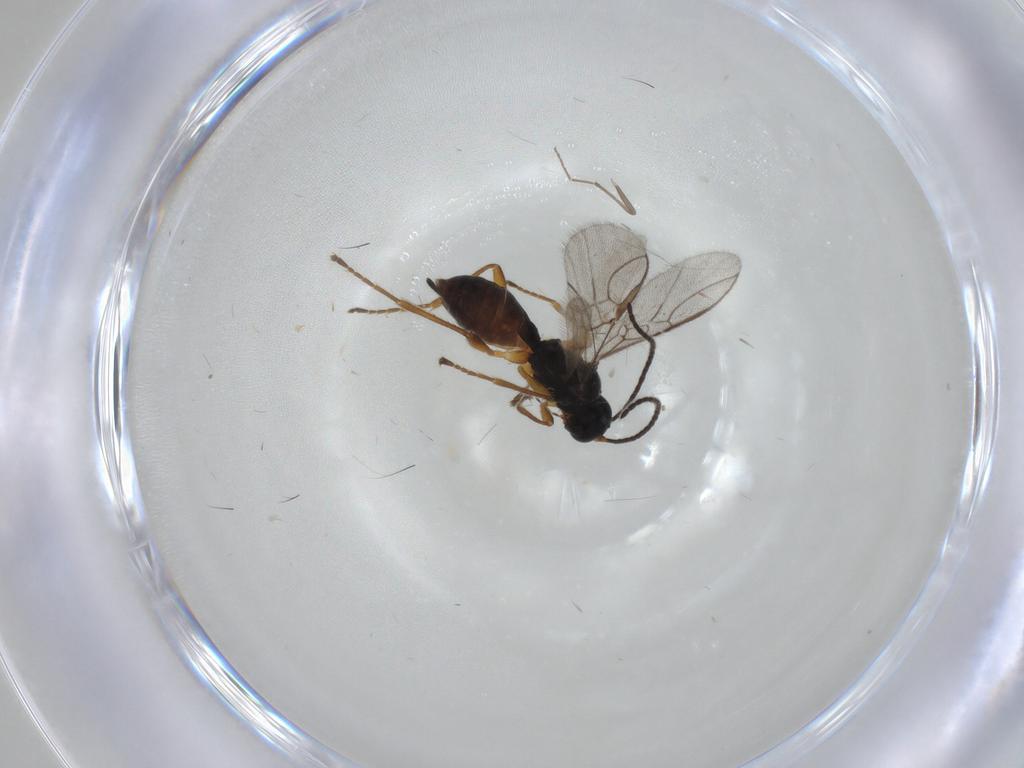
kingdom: Animalia
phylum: Arthropoda
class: Insecta
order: Hymenoptera
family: Braconidae
